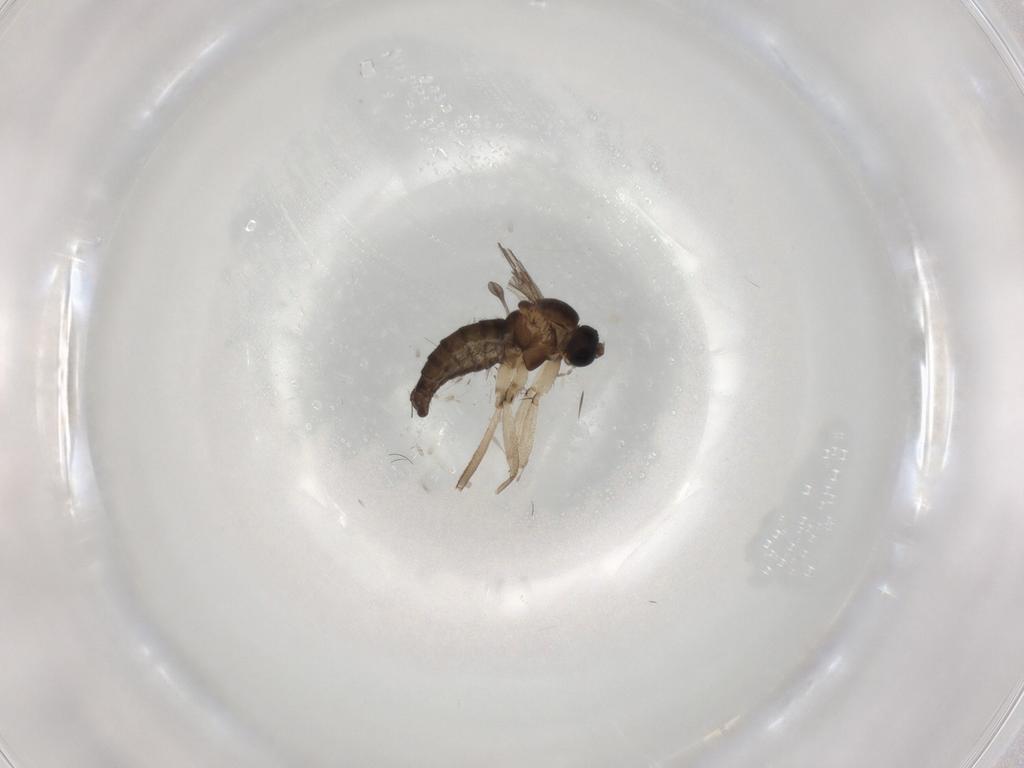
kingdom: Animalia
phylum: Arthropoda
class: Insecta
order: Diptera
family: Sciaridae
